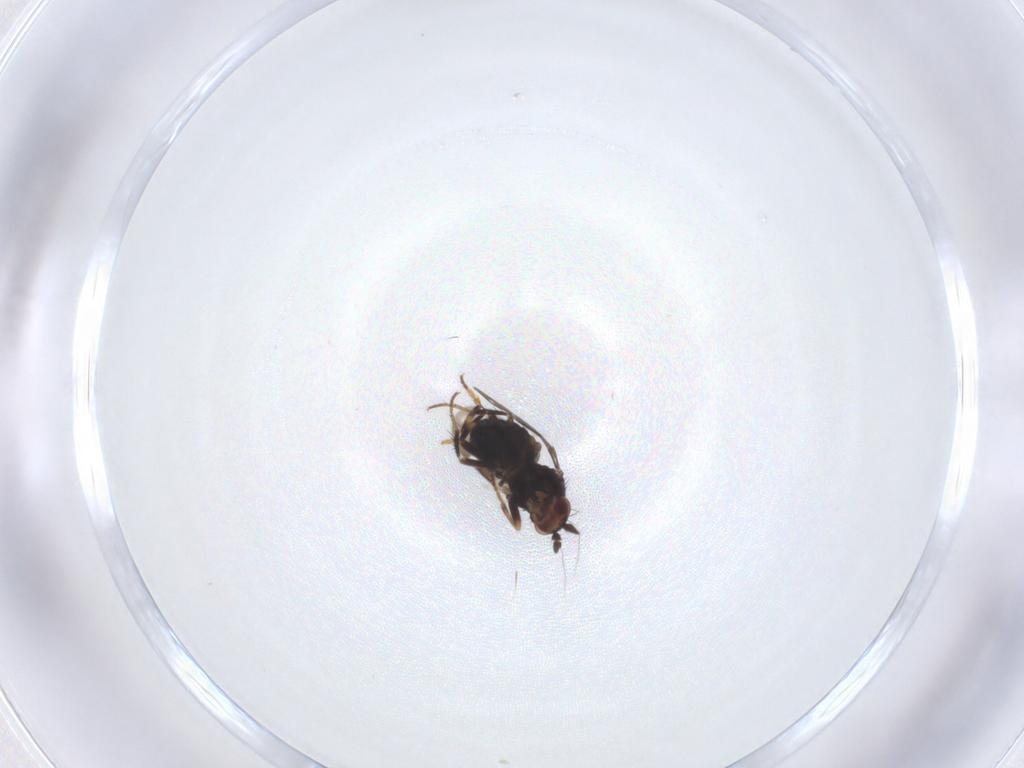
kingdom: Animalia
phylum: Arthropoda
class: Insecta
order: Diptera
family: Sphaeroceridae
